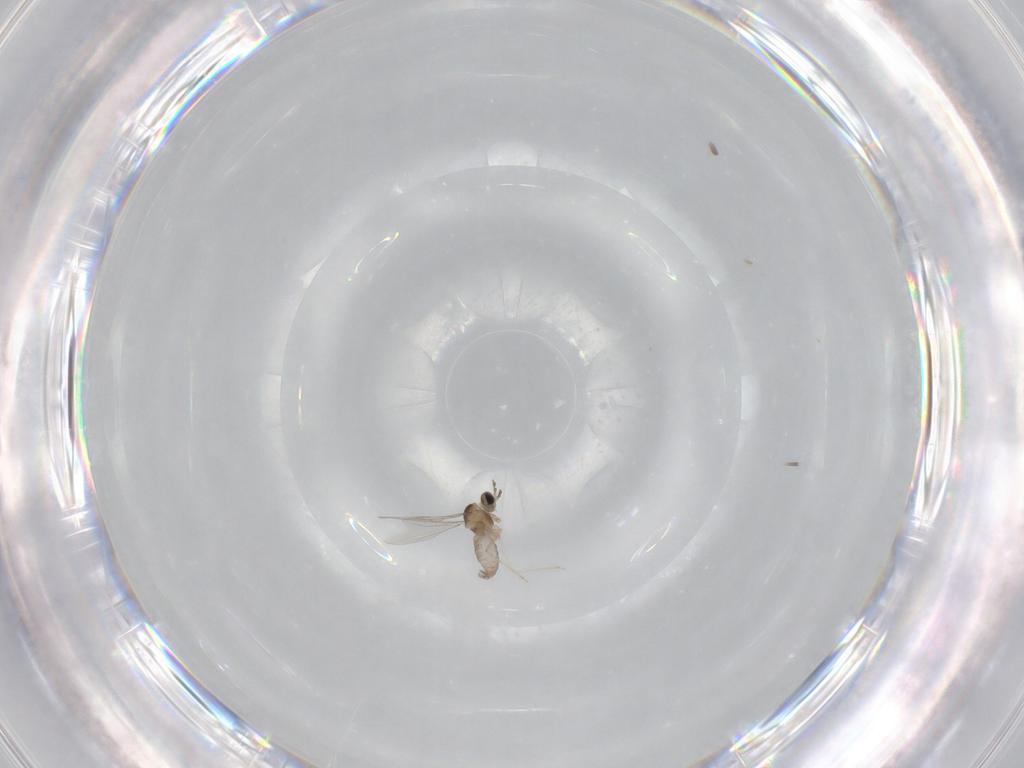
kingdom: Animalia
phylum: Arthropoda
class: Insecta
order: Diptera
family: Cecidomyiidae
